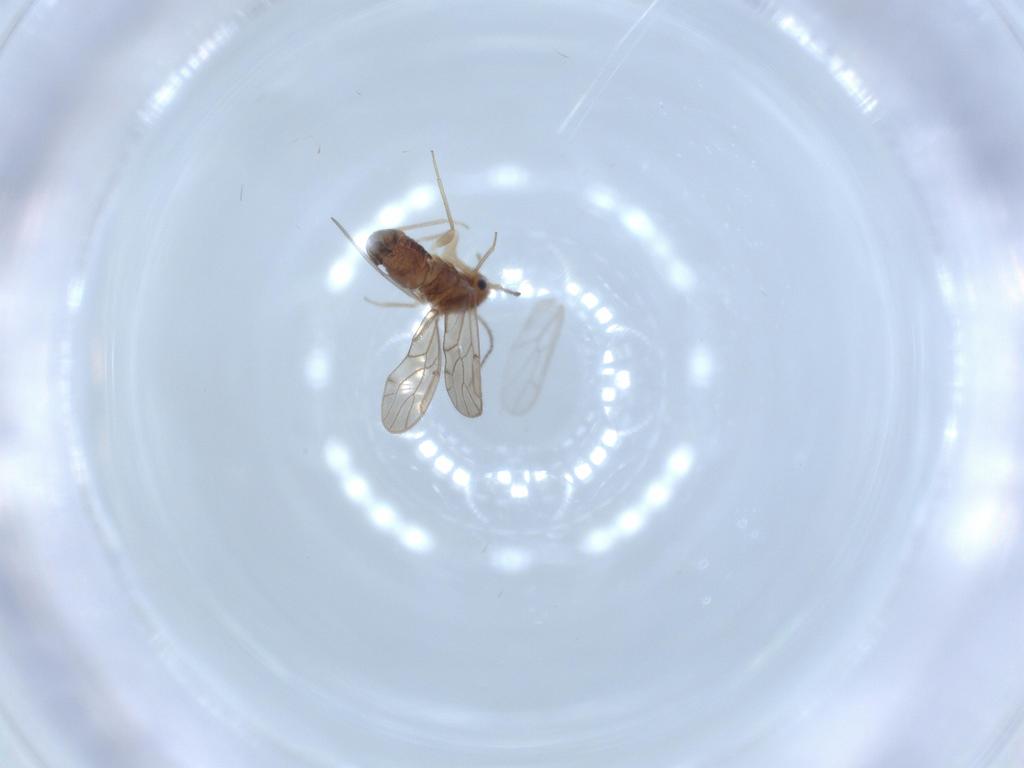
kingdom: Animalia
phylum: Arthropoda
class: Insecta
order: Psocodea
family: Ectopsocidae
